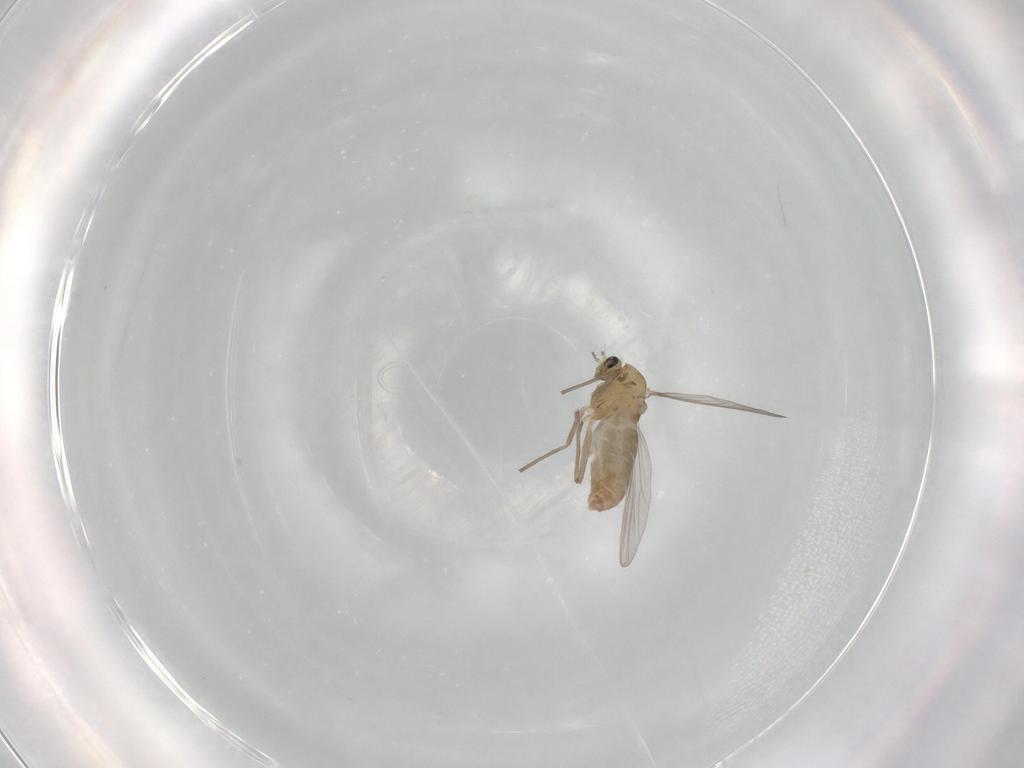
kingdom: Animalia
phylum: Arthropoda
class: Insecta
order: Diptera
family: Chironomidae
